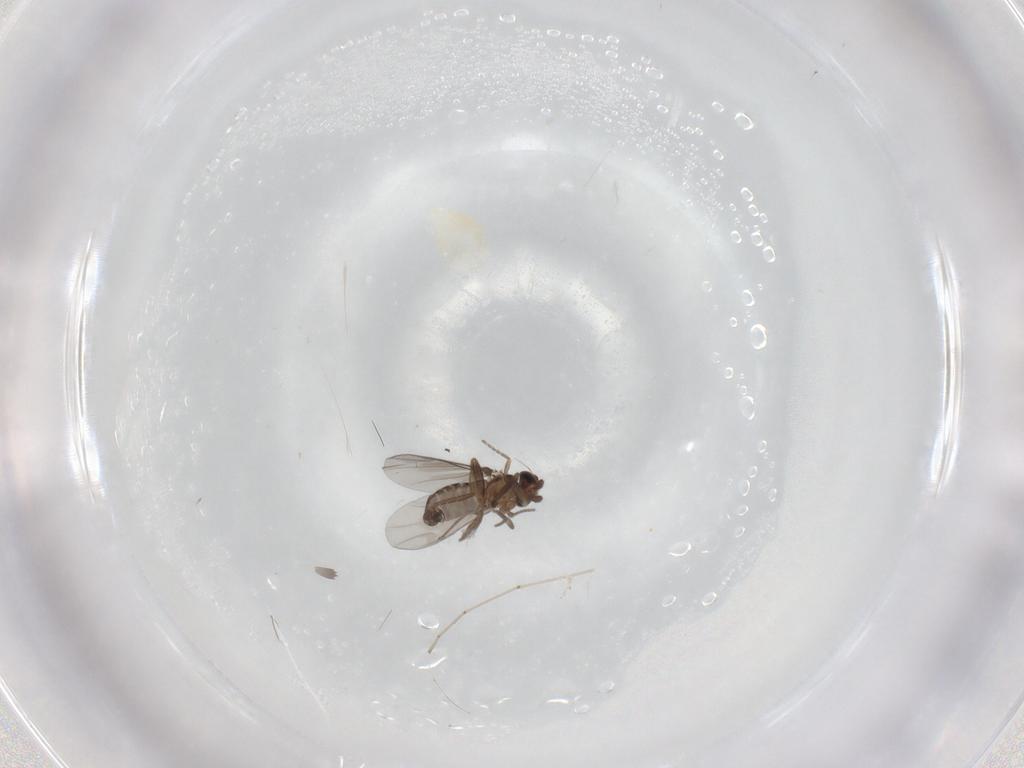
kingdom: Animalia
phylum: Arthropoda
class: Insecta
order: Diptera
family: Cecidomyiidae
